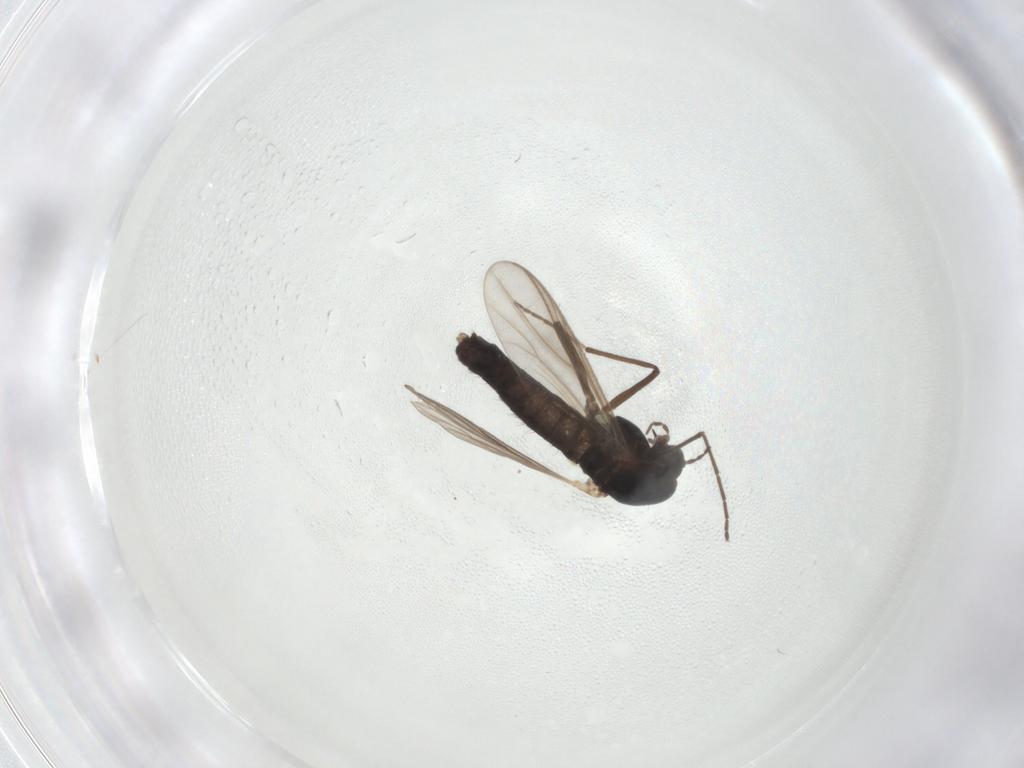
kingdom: Animalia
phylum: Arthropoda
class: Insecta
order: Diptera
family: Chironomidae
